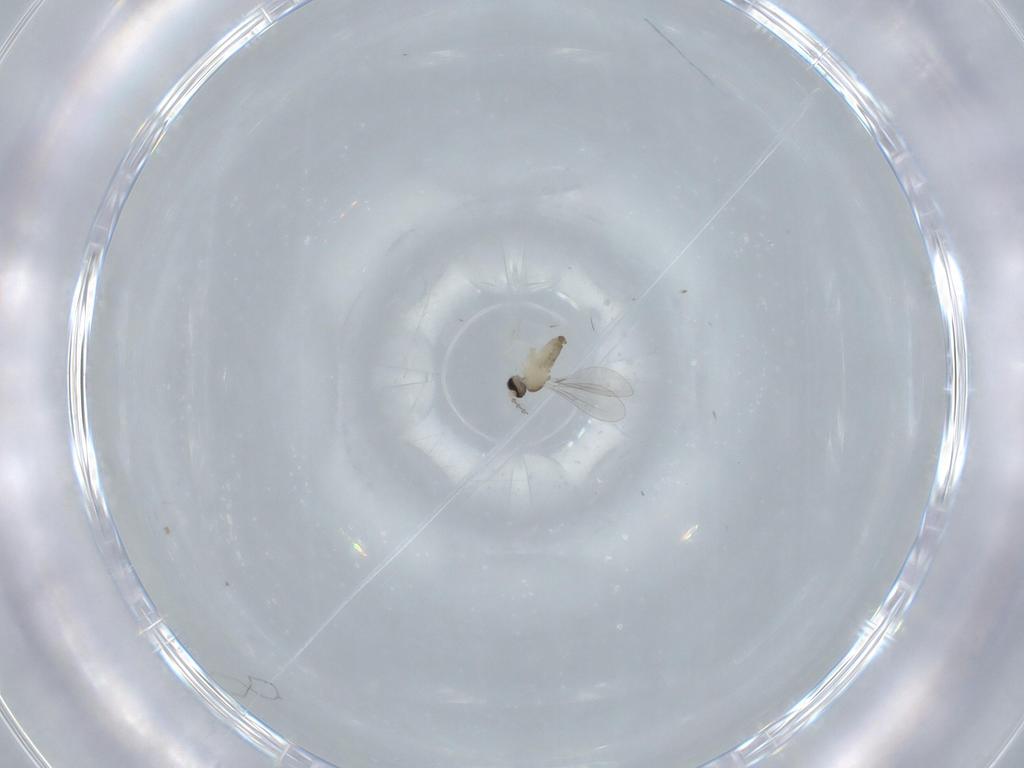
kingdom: Animalia
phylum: Arthropoda
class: Insecta
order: Diptera
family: Cecidomyiidae
